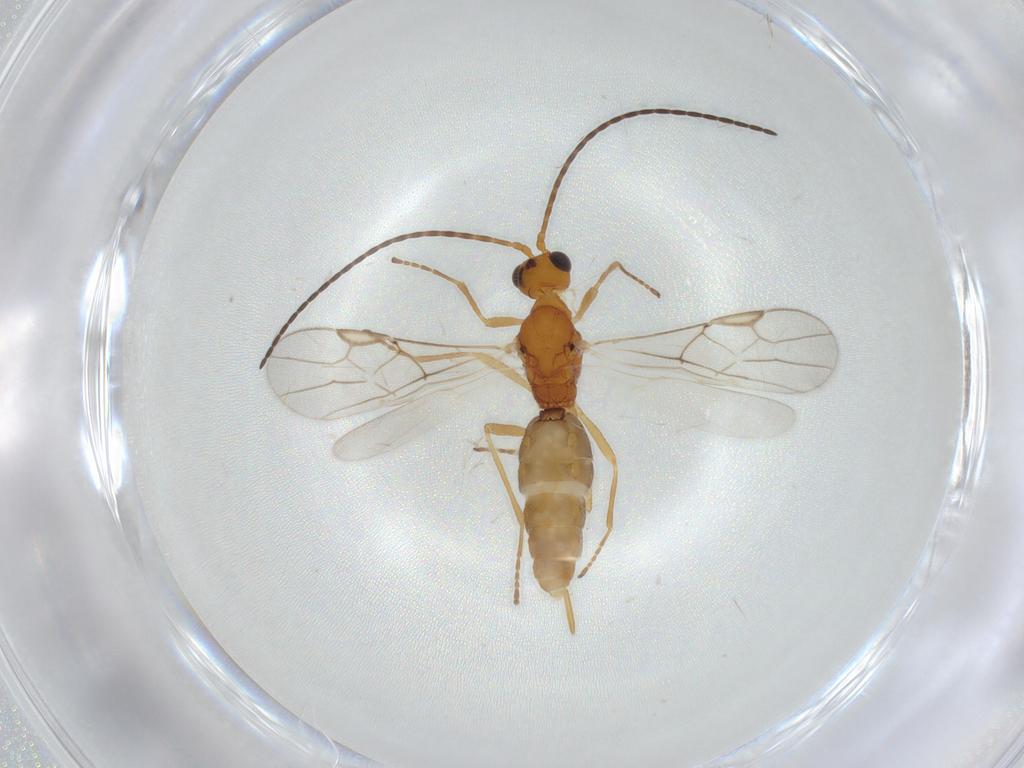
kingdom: Animalia
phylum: Arthropoda
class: Insecta
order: Hymenoptera
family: Braconidae
